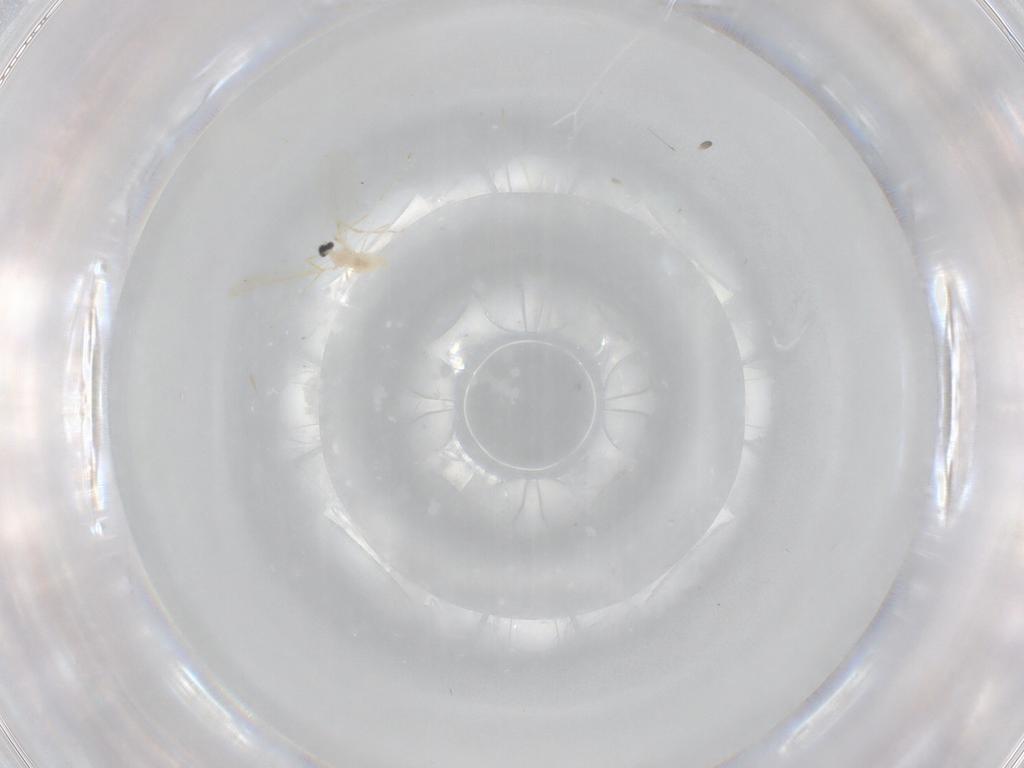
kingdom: Animalia
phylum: Arthropoda
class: Insecta
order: Diptera
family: Cecidomyiidae
